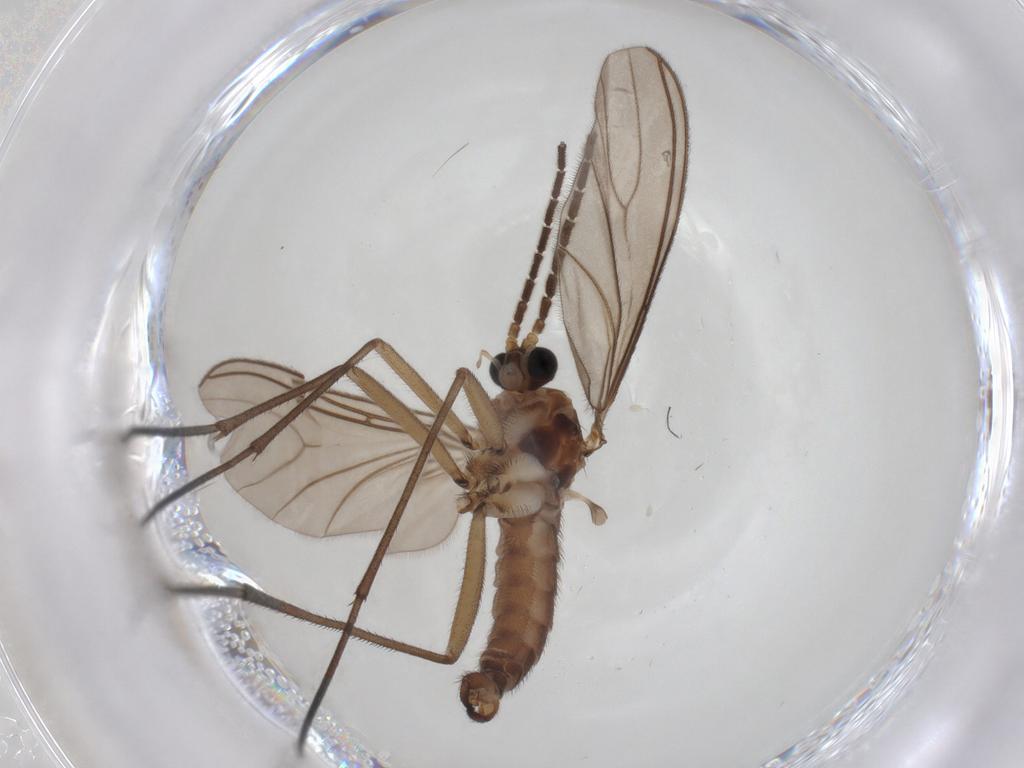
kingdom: Animalia
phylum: Arthropoda
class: Insecta
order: Diptera
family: Sciaridae
